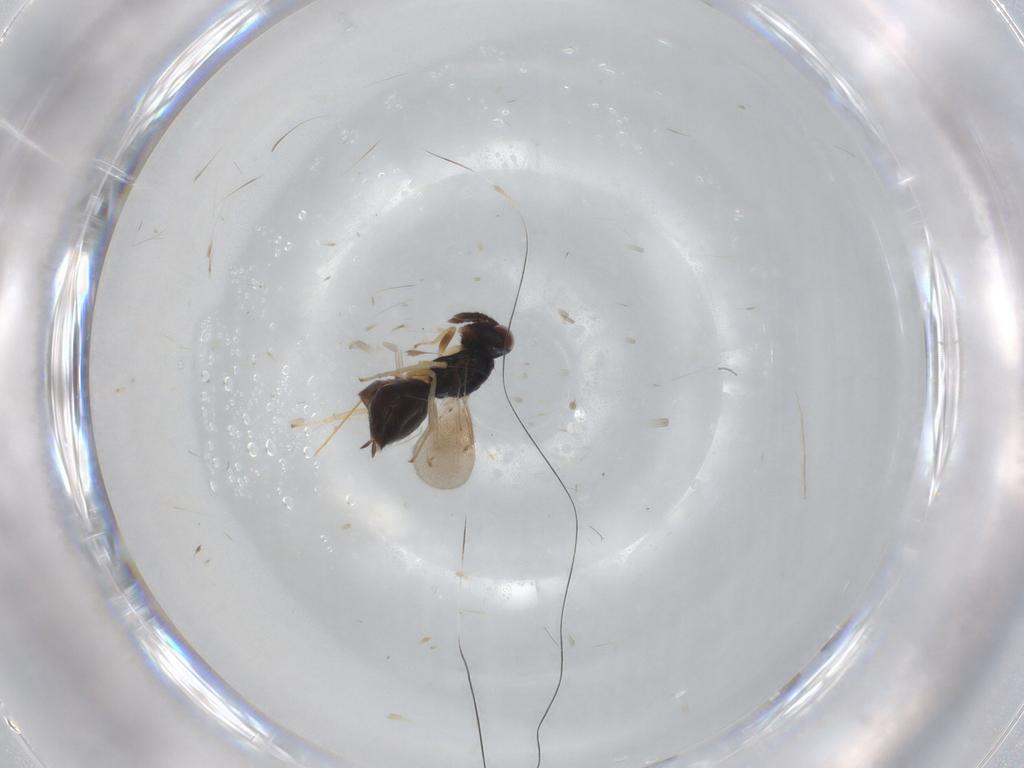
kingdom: Animalia
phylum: Arthropoda
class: Insecta
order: Hymenoptera
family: Eulophidae
